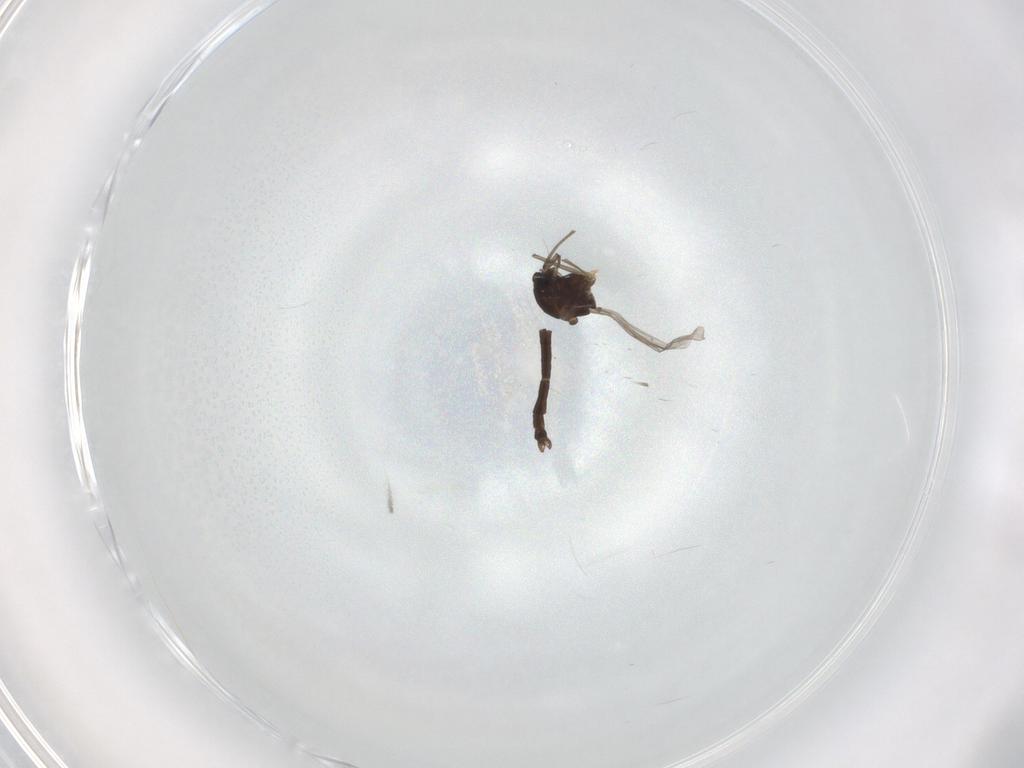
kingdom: Animalia
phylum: Arthropoda
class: Insecta
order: Diptera
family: Chironomidae
